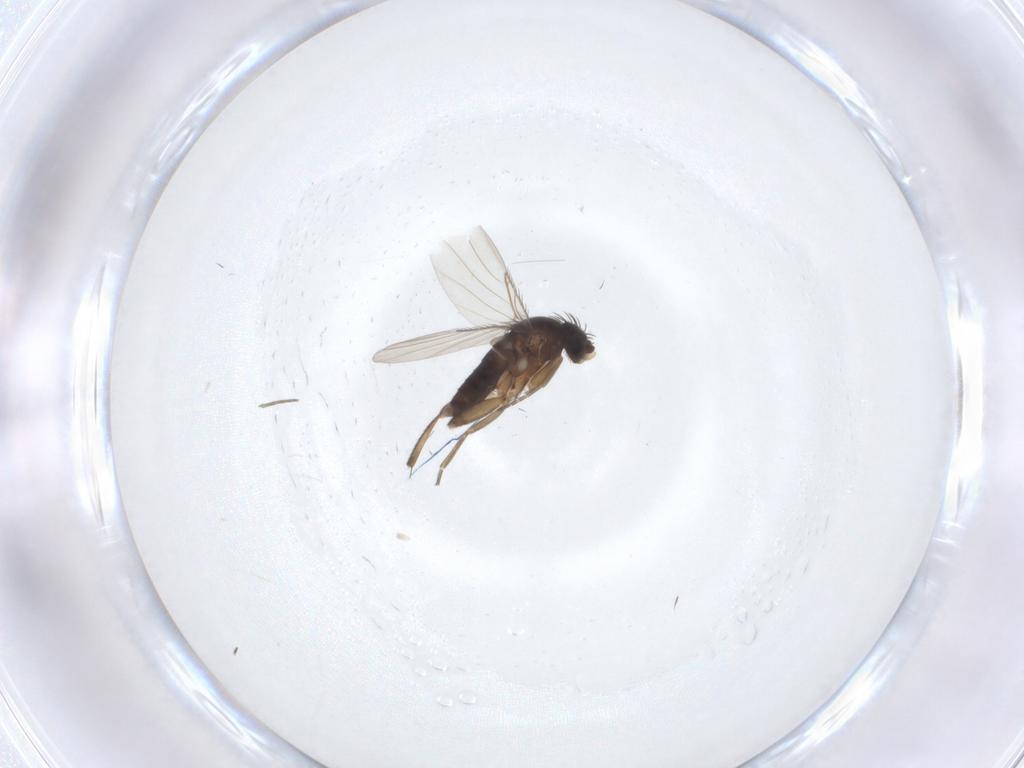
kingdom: Animalia
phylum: Arthropoda
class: Insecta
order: Diptera
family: Phoridae
